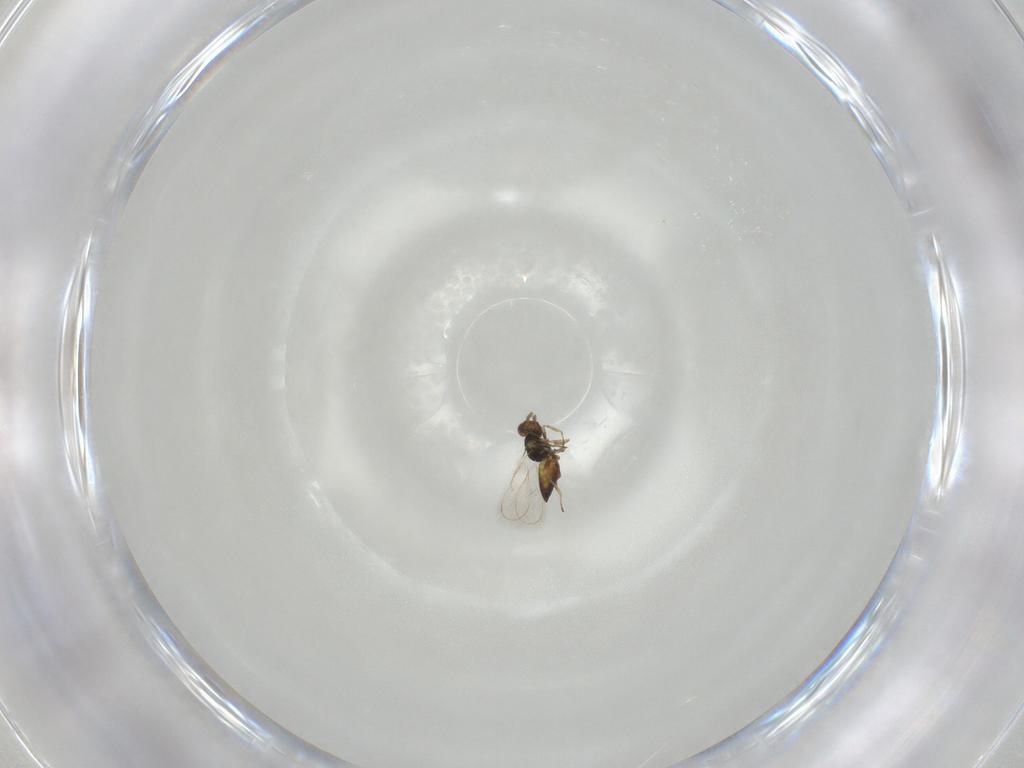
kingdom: Animalia
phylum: Arthropoda
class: Insecta
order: Hymenoptera
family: Eulophidae
